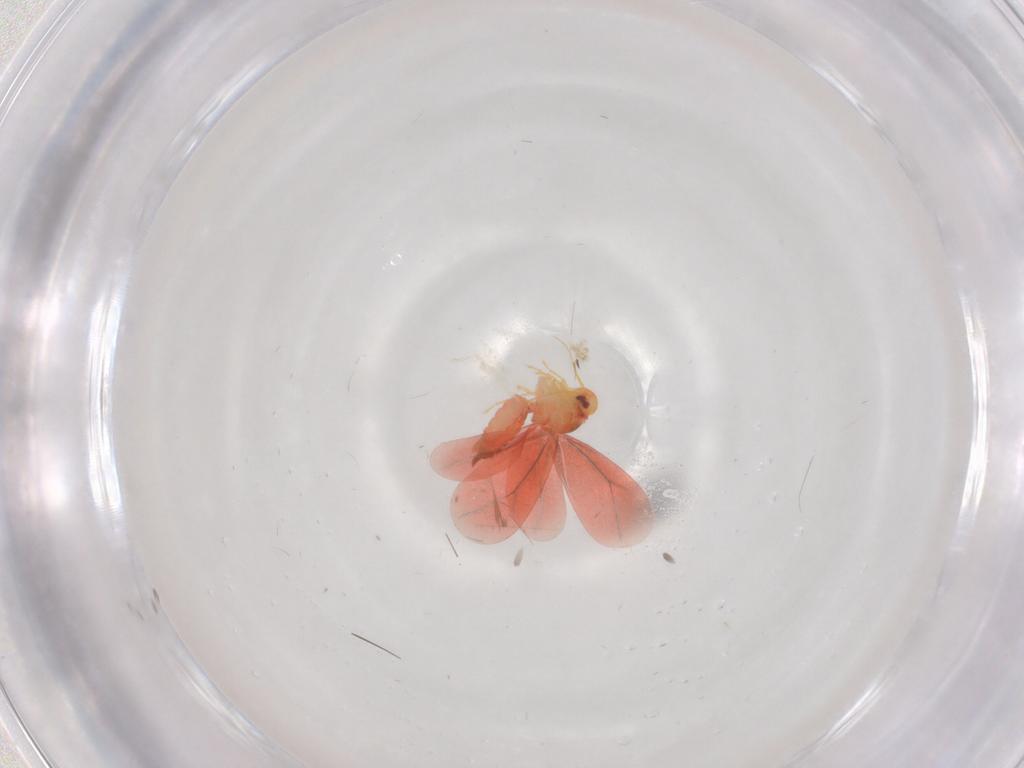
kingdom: Animalia
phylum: Arthropoda
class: Insecta
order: Hemiptera
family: Aleyrodidae
